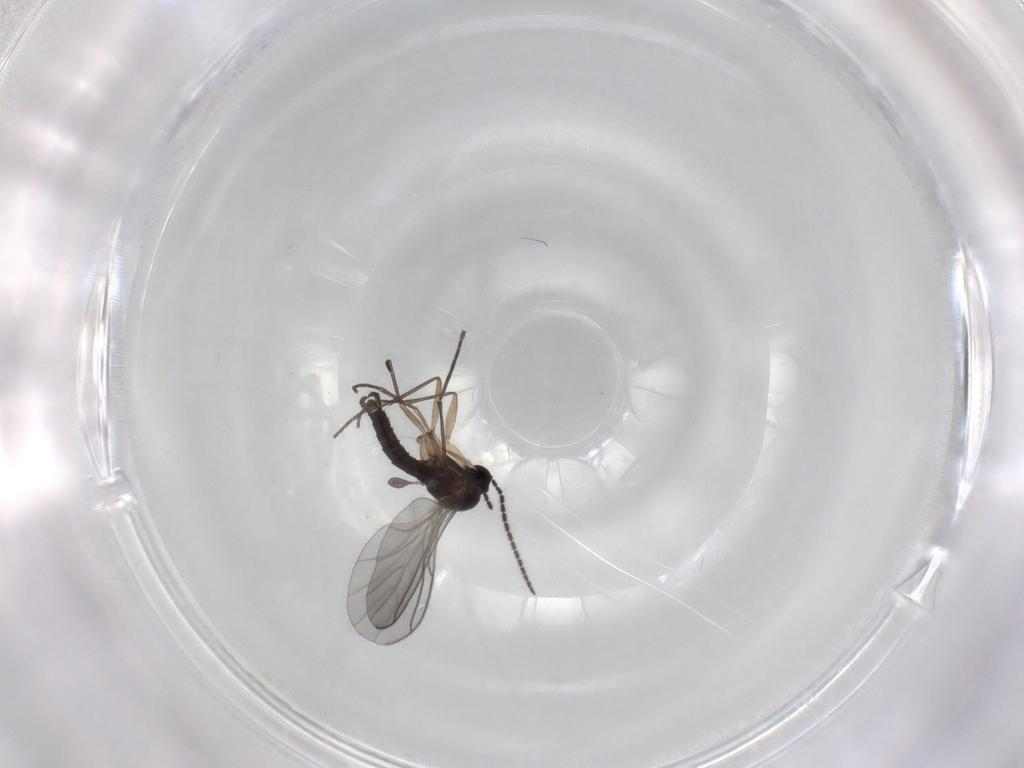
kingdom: Animalia
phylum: Arthropoda
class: Insecta
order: Diptera
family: Sciaridae
